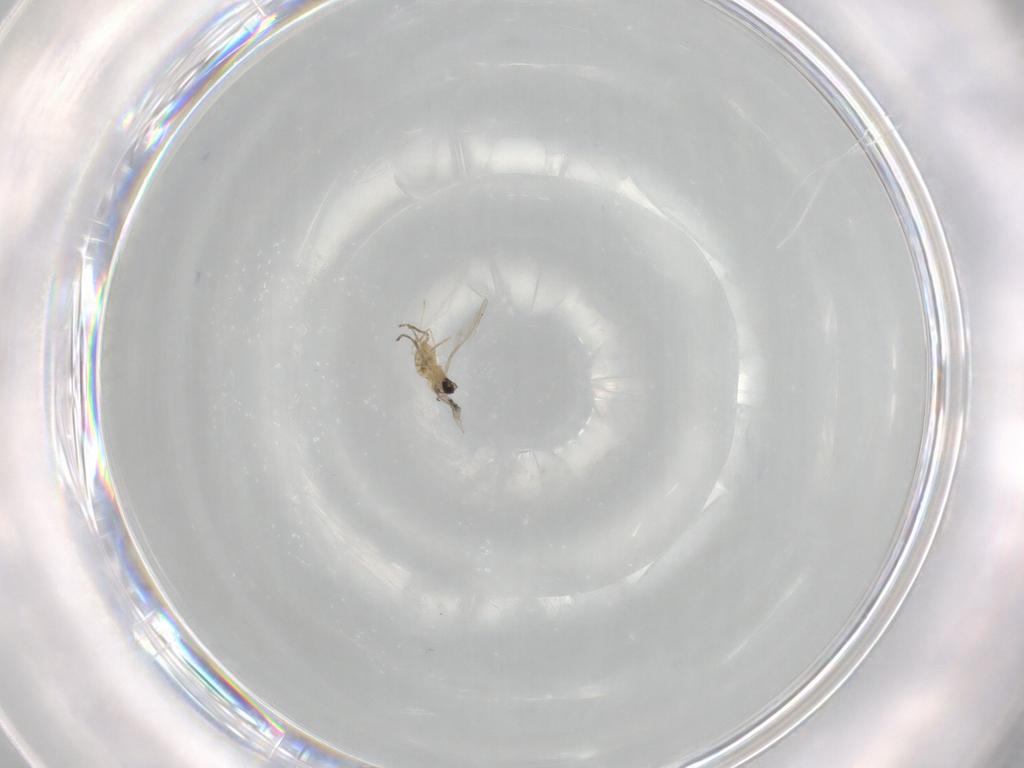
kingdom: Animalia
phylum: Arthropoda
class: Insecta
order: Diptera
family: Cecidomyiidae
